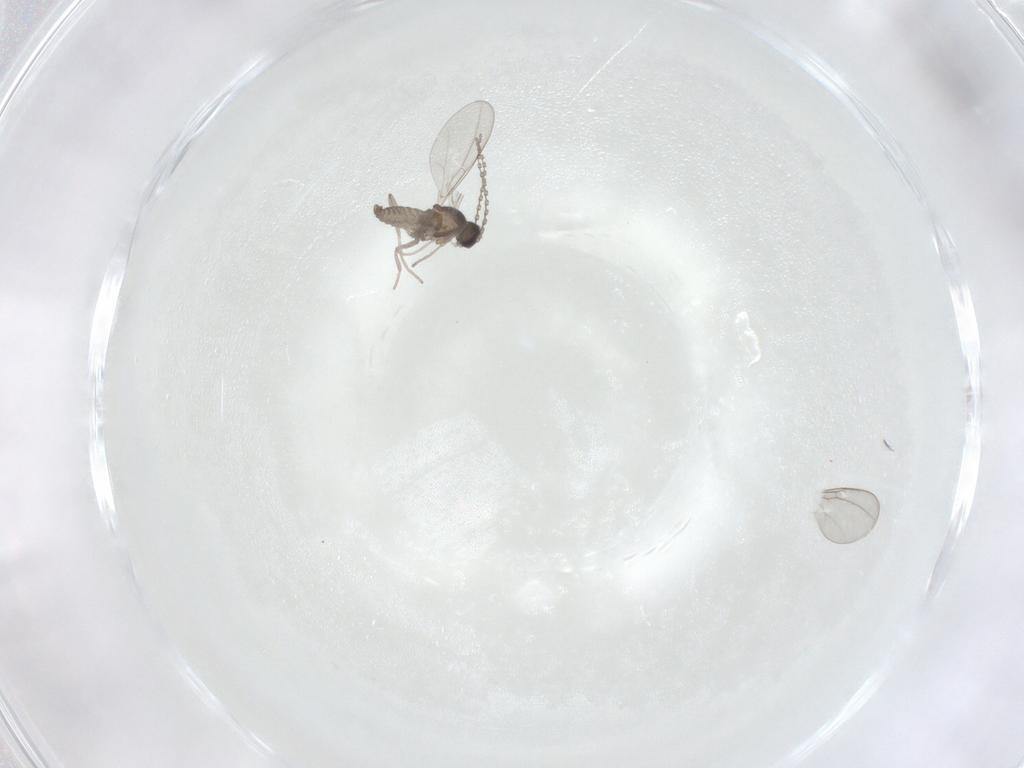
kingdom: Animalia
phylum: Arthropoda
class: Insecta
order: Diptera
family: Cecidomyiidae
